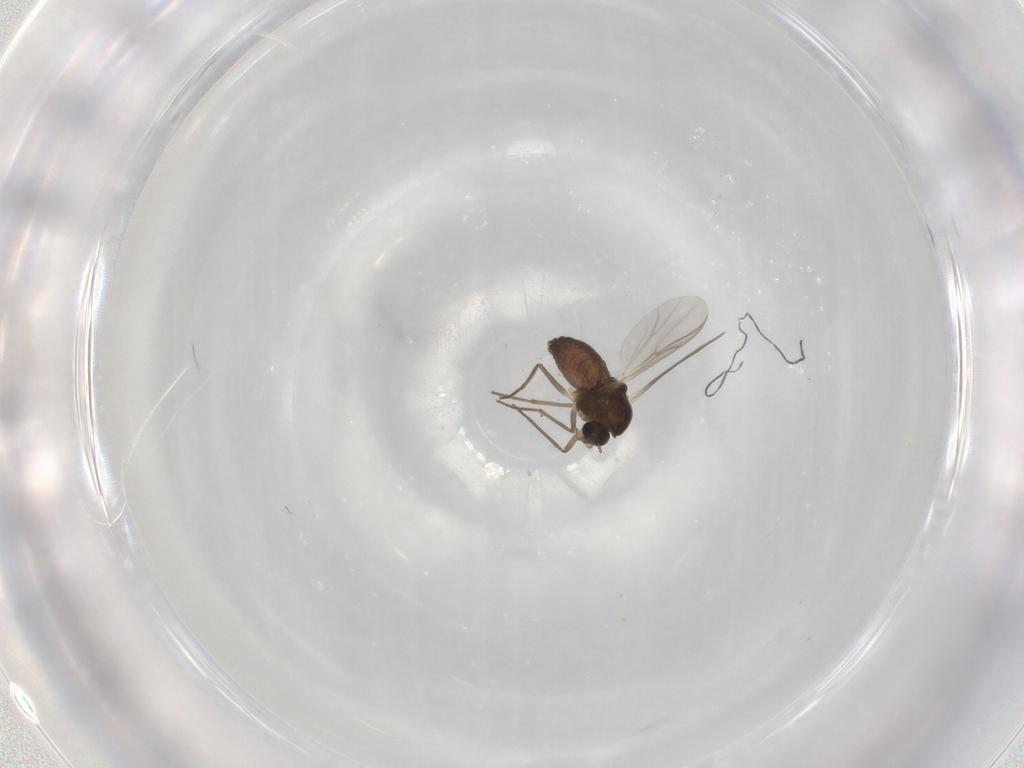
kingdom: Animalia
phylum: Arthropoda
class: Insecta
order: Diptera
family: Chironomidae
